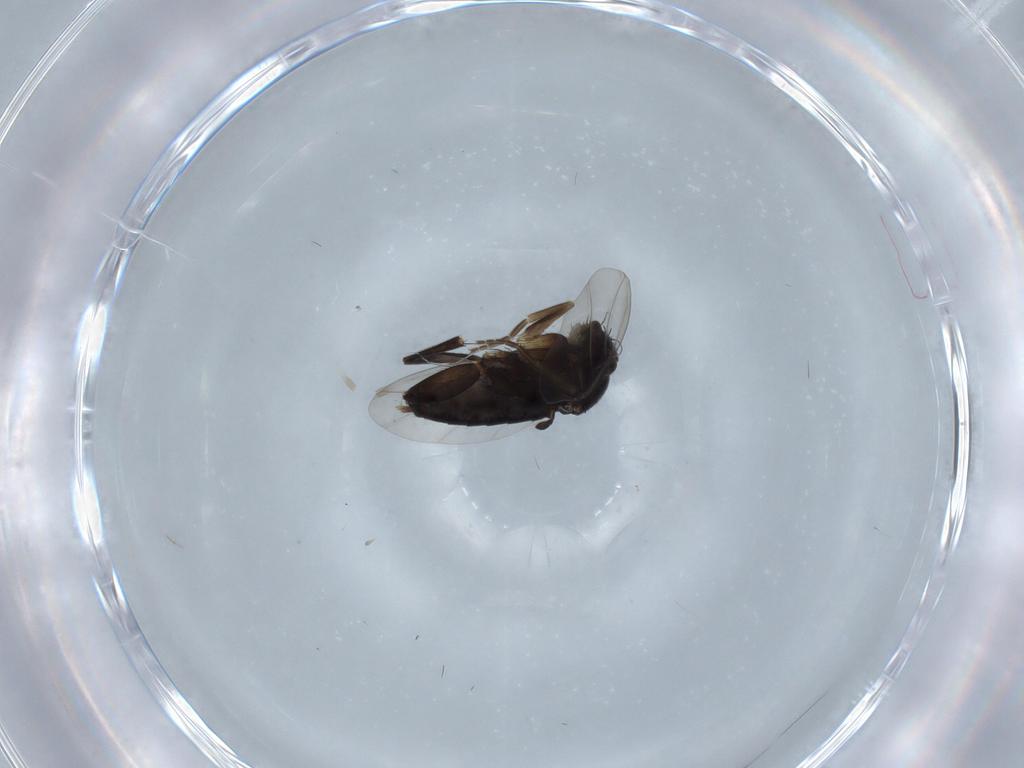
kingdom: Animalia
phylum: Arthropoda
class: Insecta
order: Diptera
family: Phoridae
